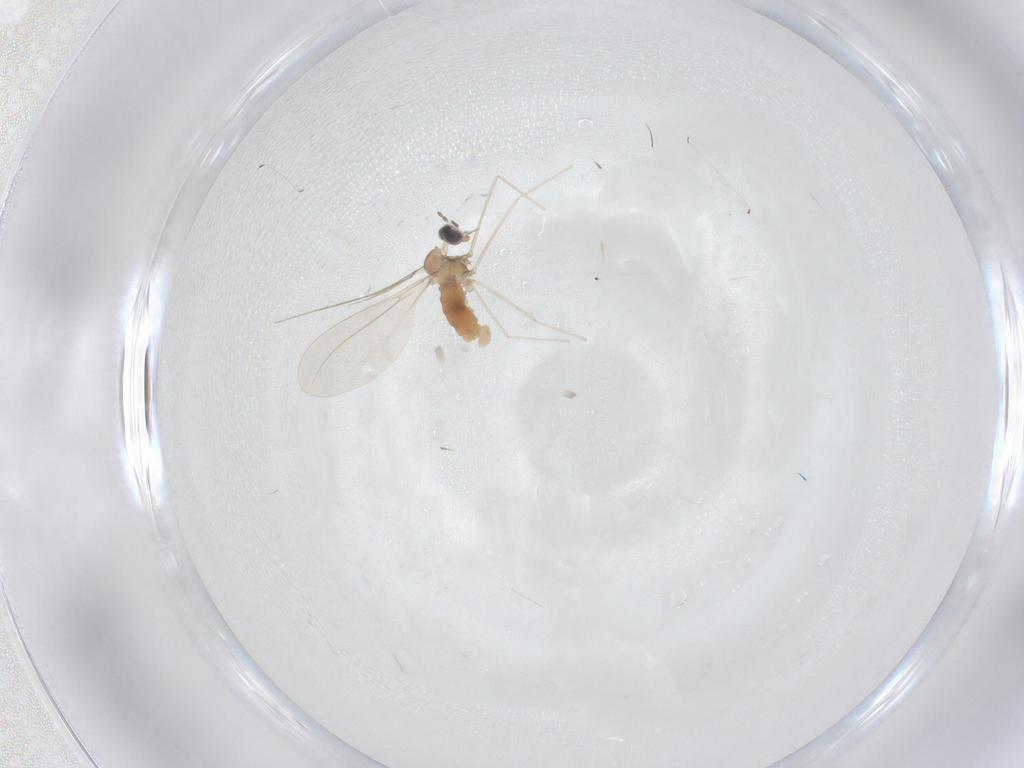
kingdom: Animalia
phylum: Arthropoda
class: Insecta
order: Diptera
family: Cecidomyiidae
